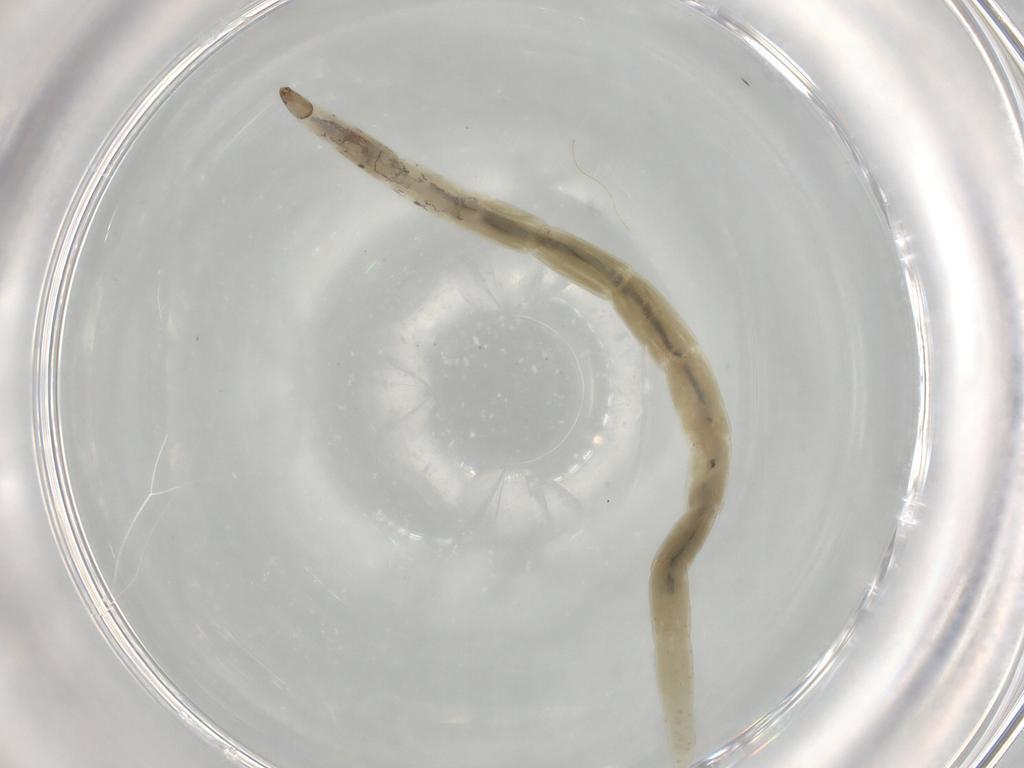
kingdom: Animalia
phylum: Arthropoda
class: Insecta
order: Diptera
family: Ceratopogonidae
